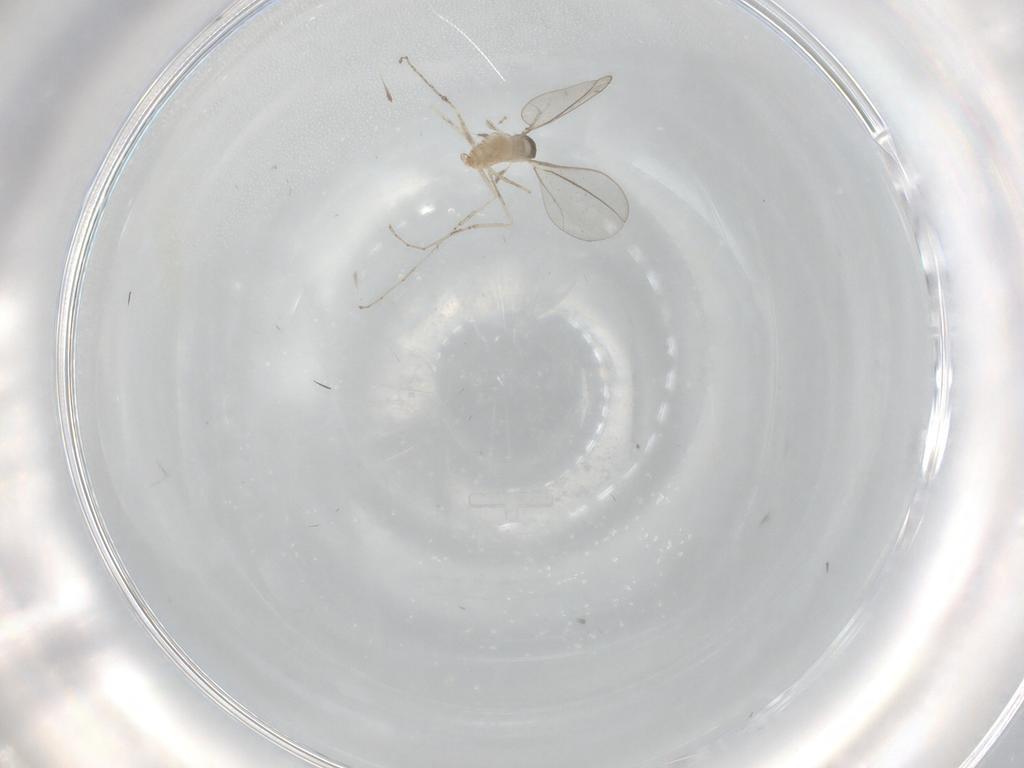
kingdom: Animalia
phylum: Arthropoda
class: Insecta
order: Diptera
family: Cecidomyiidae
